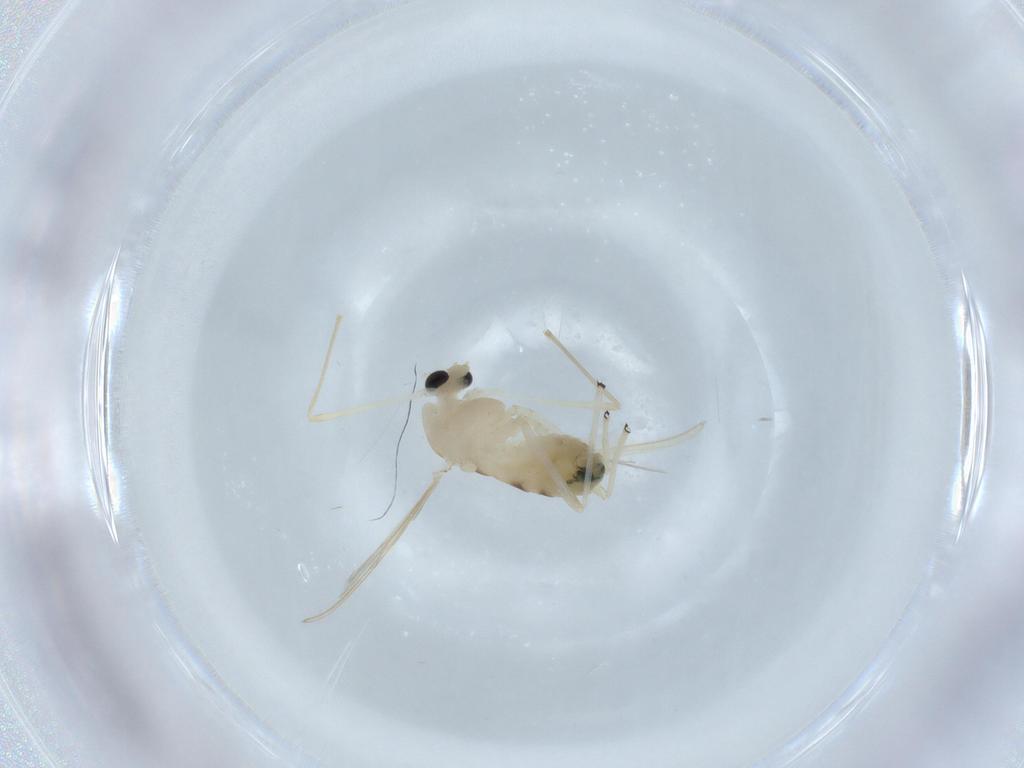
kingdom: Animalia
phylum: Arthropoda
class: Insecta
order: Diptera
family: Chironomidae
